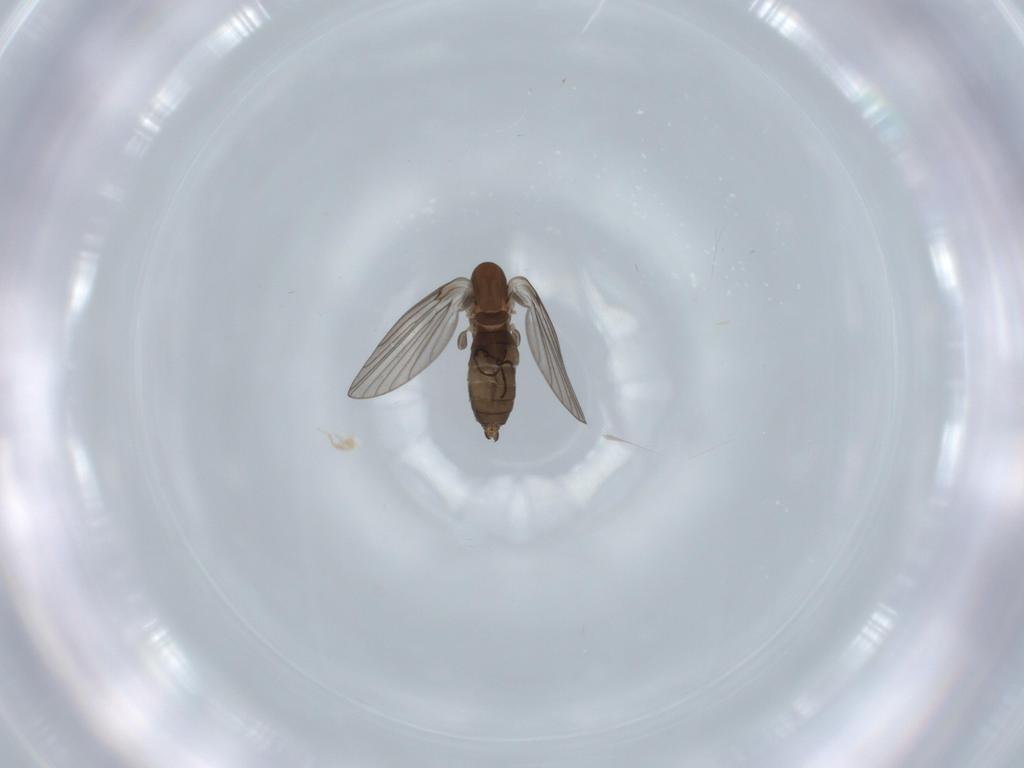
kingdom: Animalia
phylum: Arthropoda
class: Insecta
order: Diptera
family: Psychodidae
